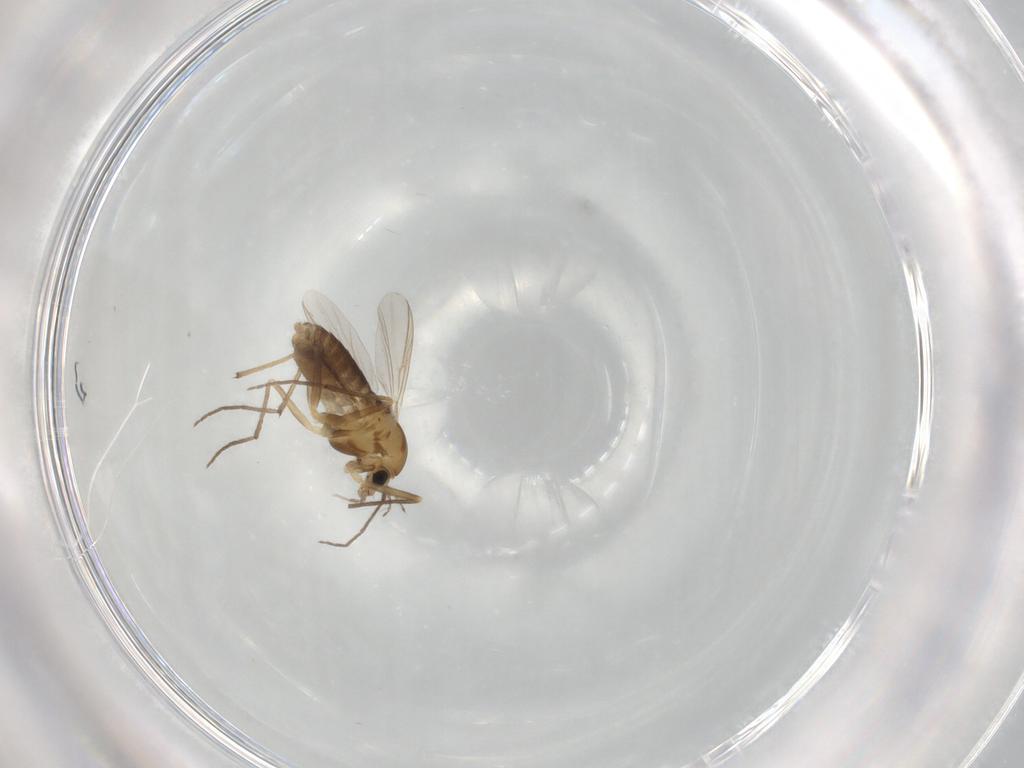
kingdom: Animalia
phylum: Arthropoda
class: Insecta
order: Diptera
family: Chironomidae
